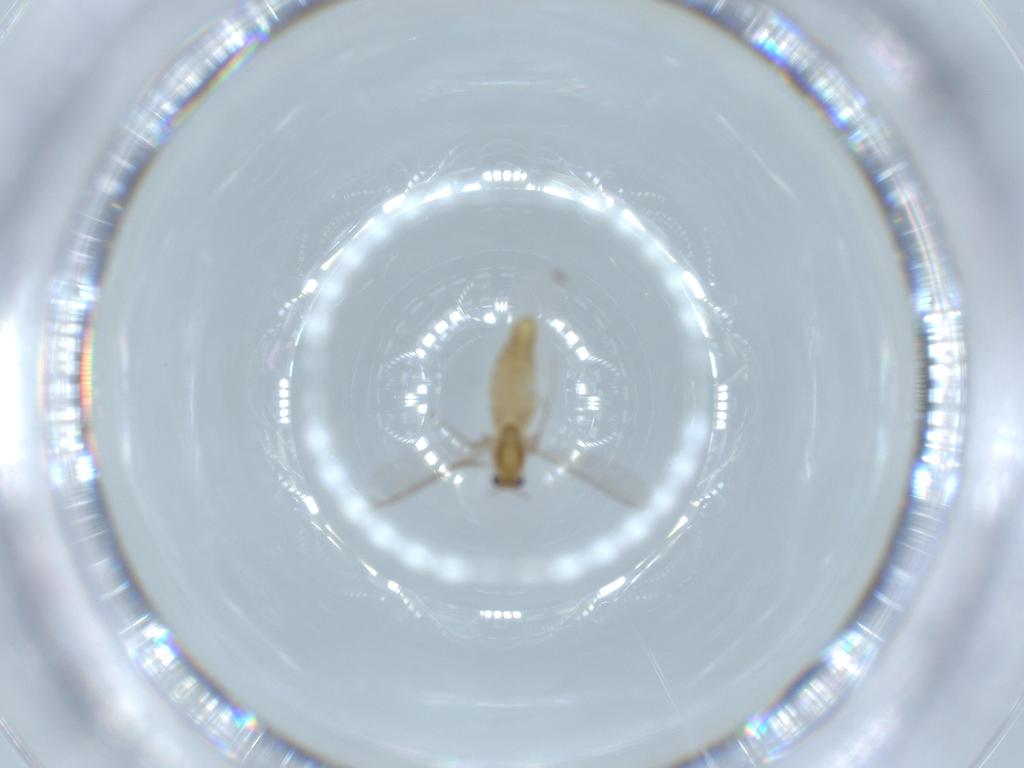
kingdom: Animalia
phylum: Arthropoda
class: Insecta
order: Diptera
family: Chironomidae
